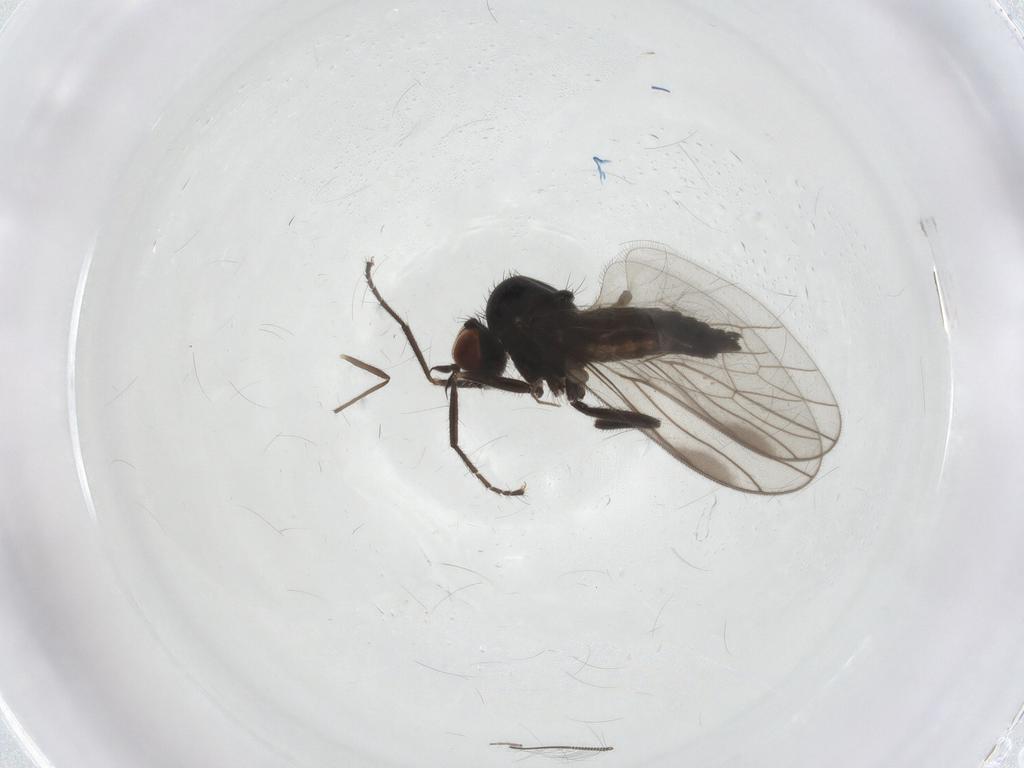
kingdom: Animalia
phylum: Arthropoda
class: Insecta
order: Diptera
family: Hybotidae
